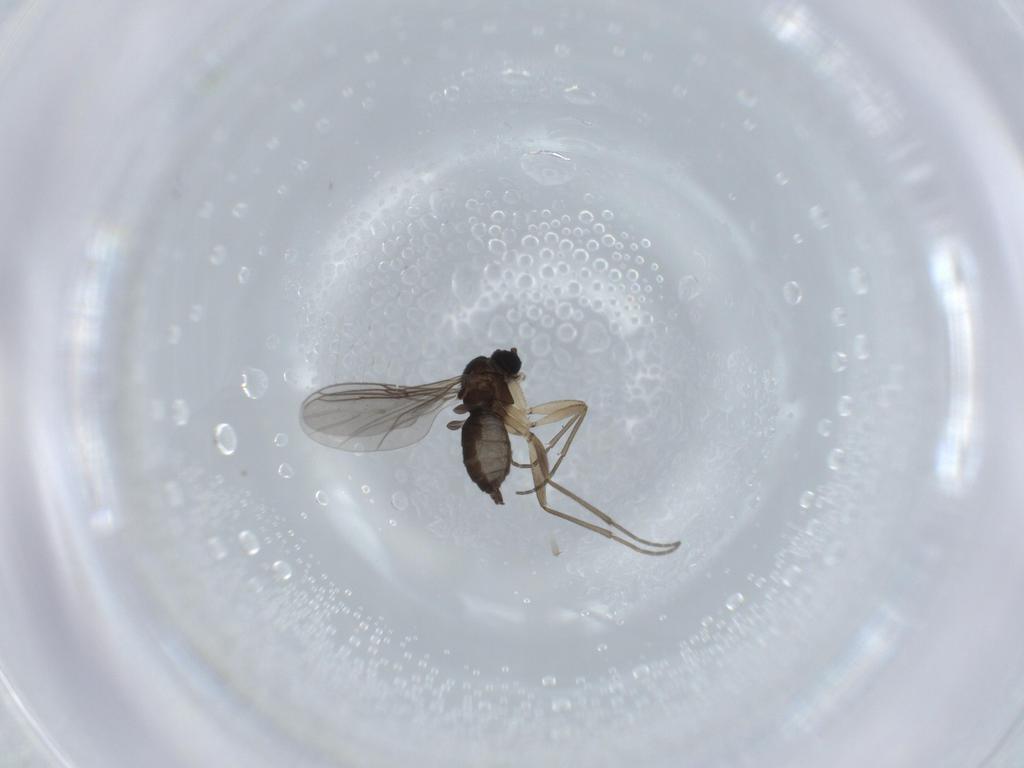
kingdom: Animalia
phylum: Arthropoda
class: Insecta
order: Diptera
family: Sciaridae
